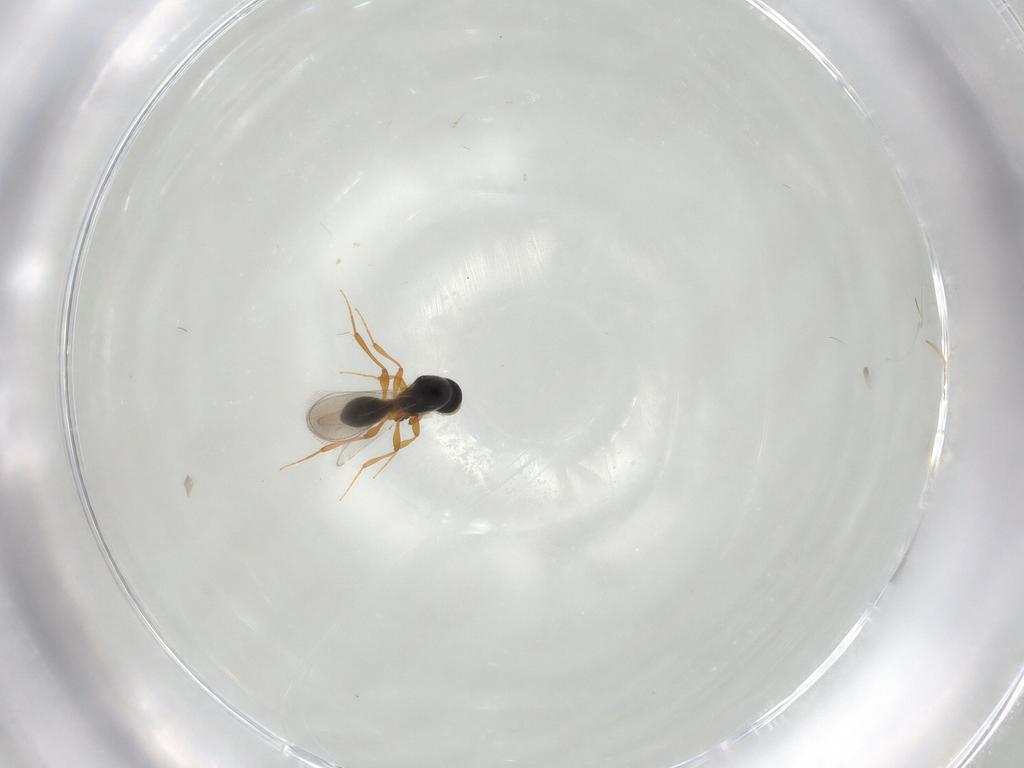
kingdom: Animalia
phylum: Arthropoda
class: Insecta
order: Hymenoptera
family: Platygastridae
